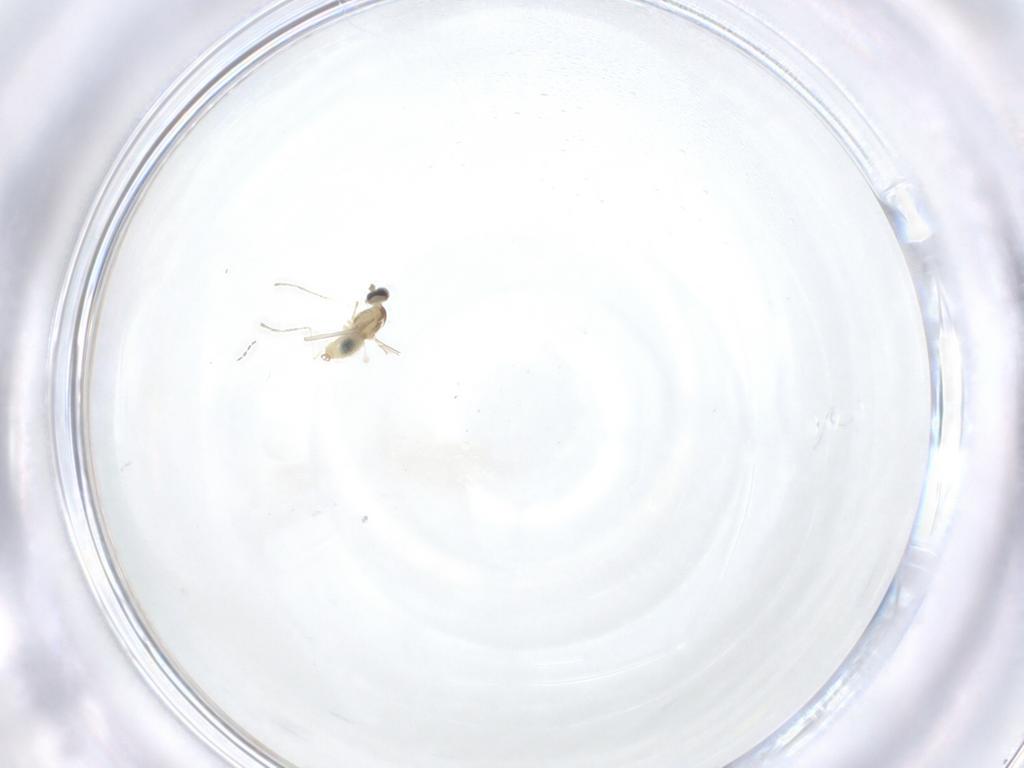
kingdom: Animalia
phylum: Arthropoda
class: Insecta
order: Diptera
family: Cecidomyiidae
